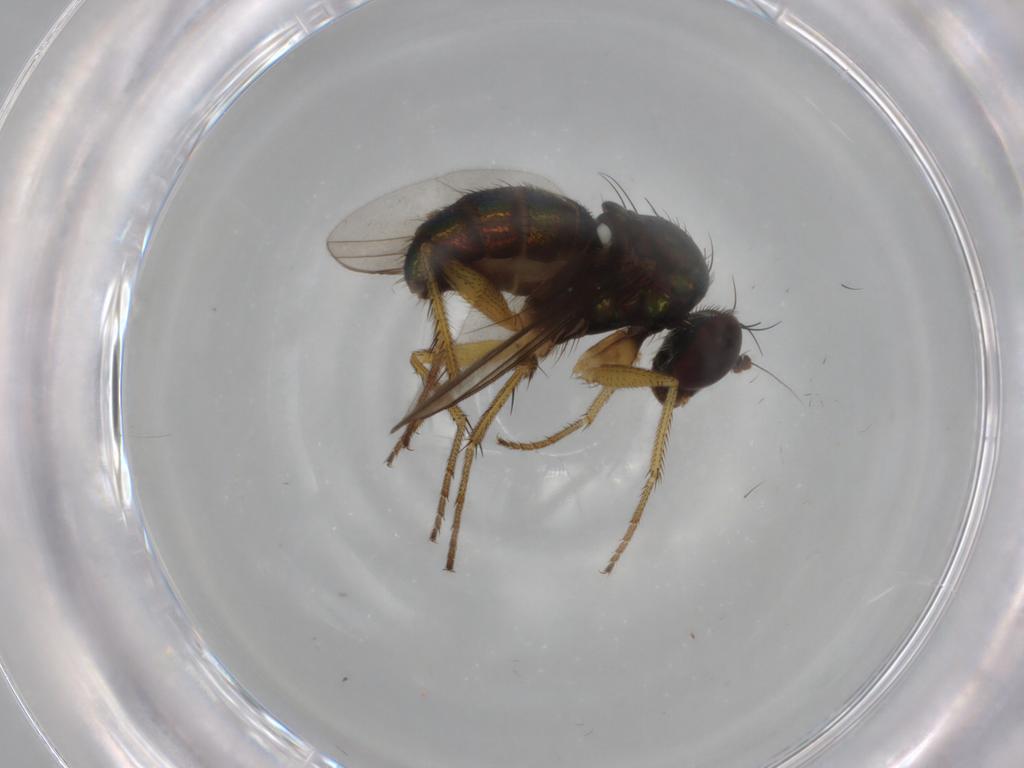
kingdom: Animalia
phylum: Arthropoda
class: Insecta
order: Diptera
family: Dolichopodidae
